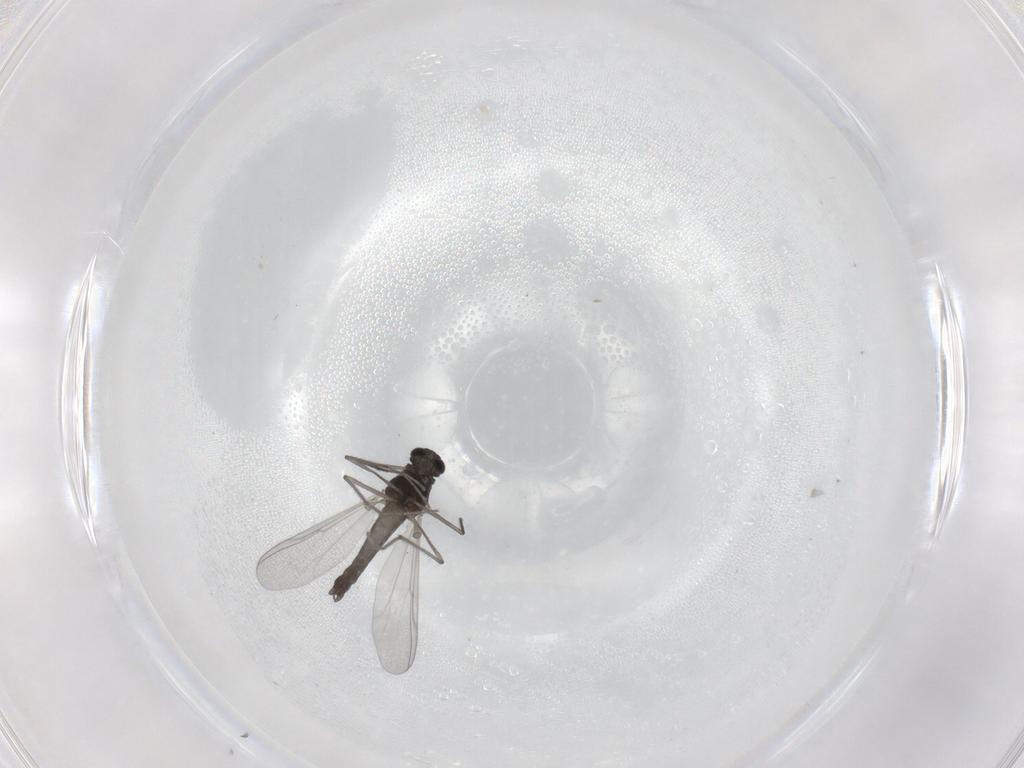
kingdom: Animalia
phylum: Arthropoda
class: Insecta
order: Diptera
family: Chironomidae
